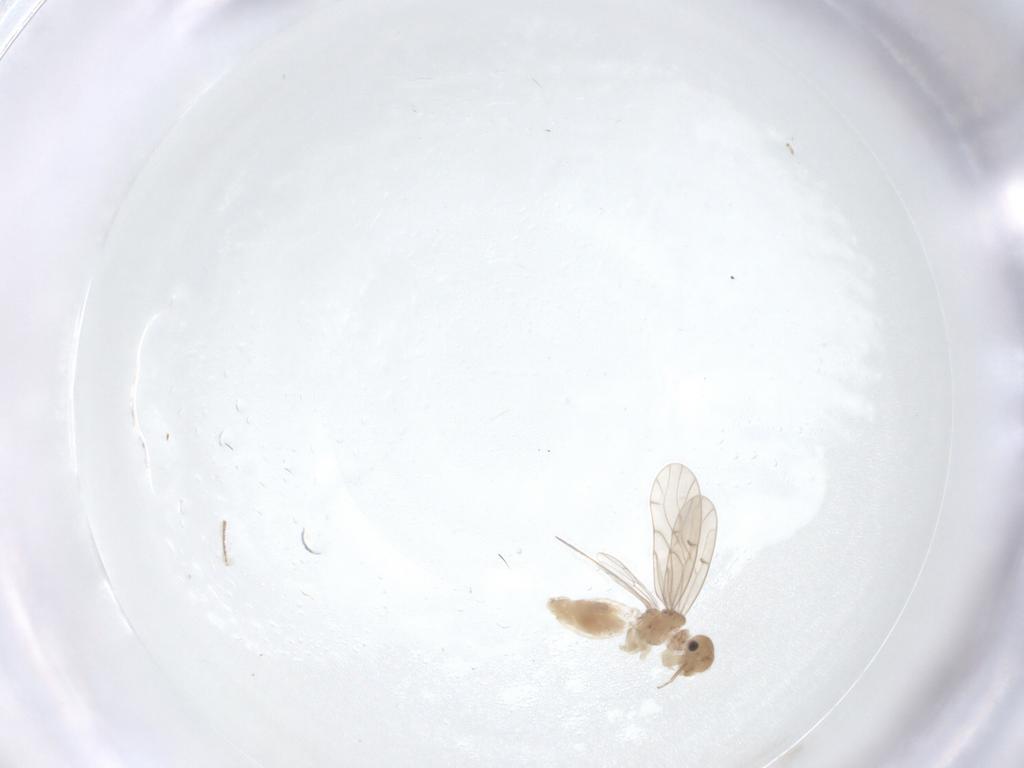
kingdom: Animalia
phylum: Arthropoda
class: Insecta
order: Psocodea
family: Ectopsocidae
